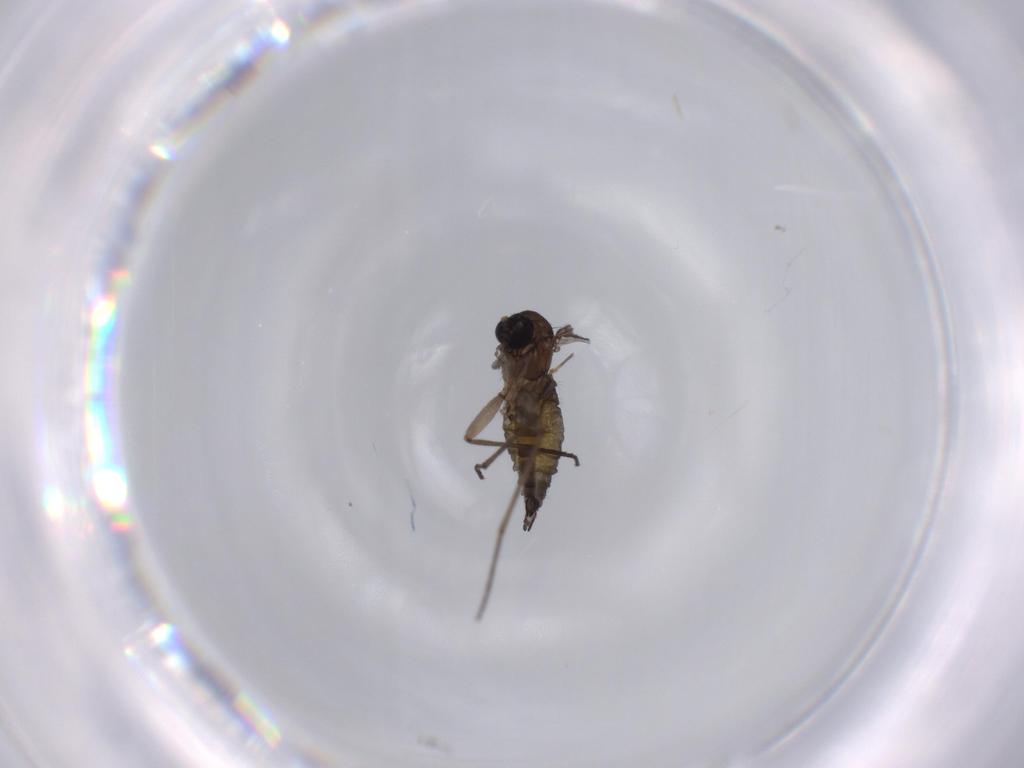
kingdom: Animalia
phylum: Arthropoda
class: Insecta
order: Diptera
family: Sciaridae
